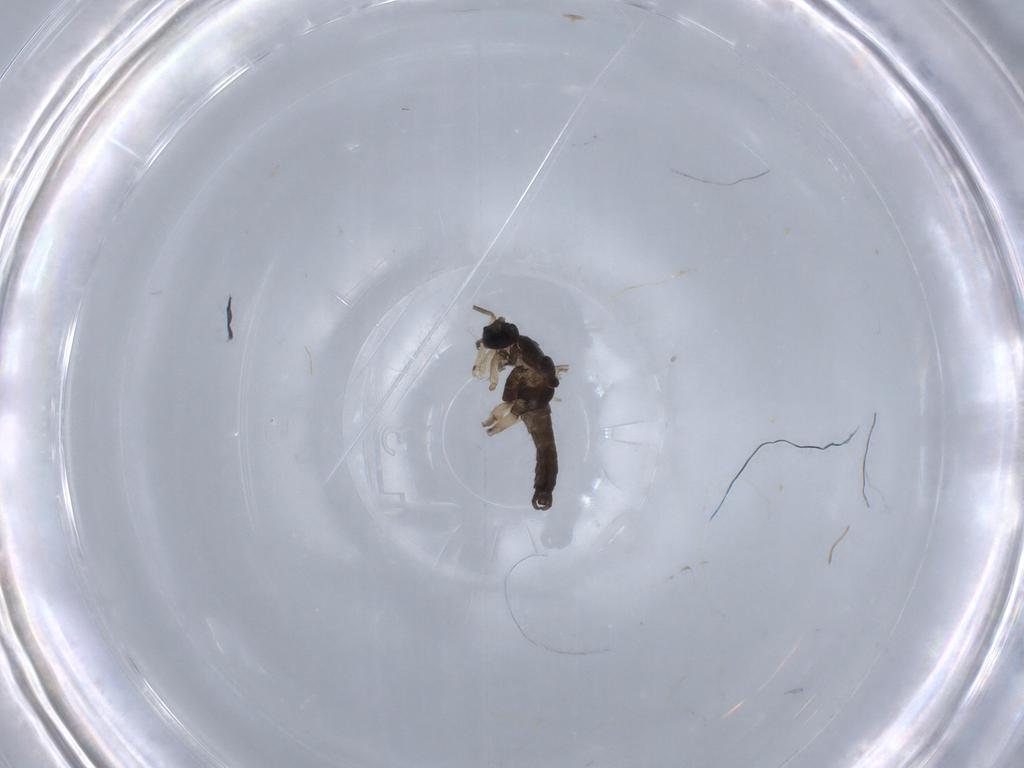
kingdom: Animalia
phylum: Arthropoda
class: Insecta
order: Diptera
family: Sciaridae
